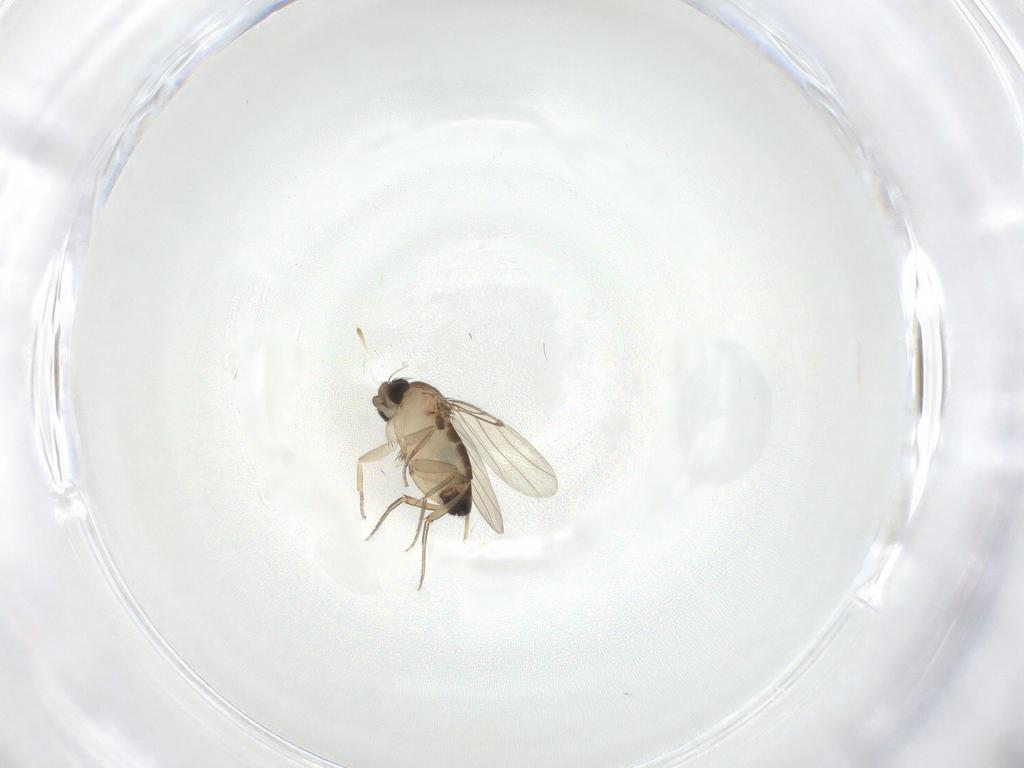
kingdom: Animalia
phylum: Arthropoda
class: Insecta
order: Diptera
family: Phoridae
